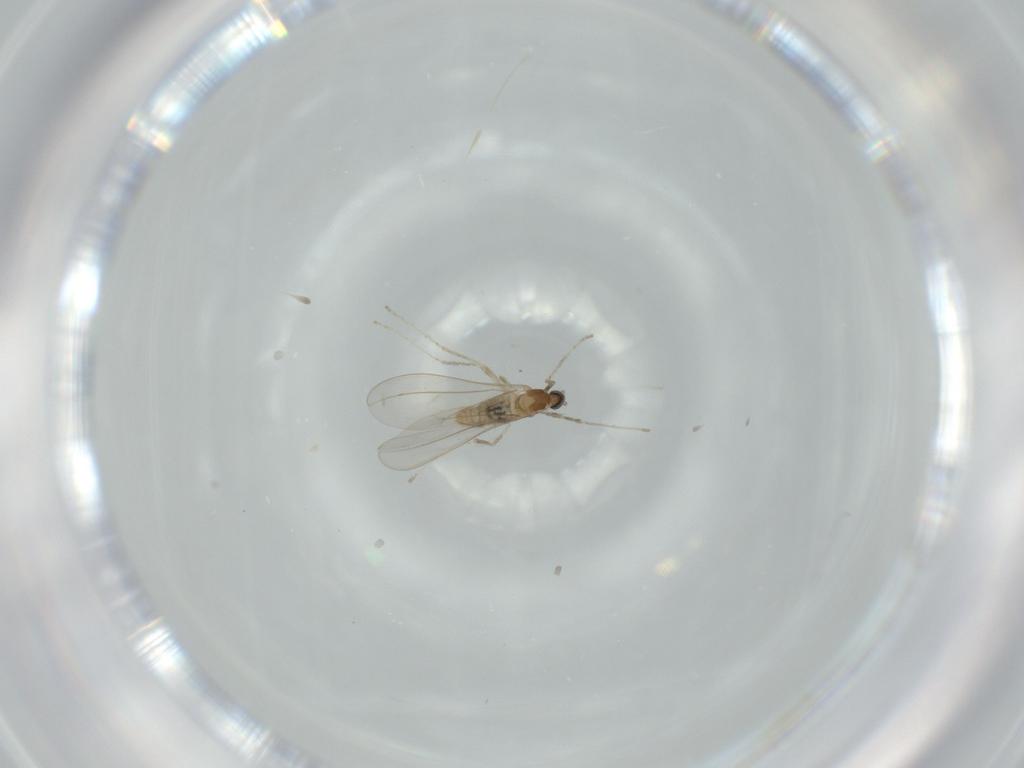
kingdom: Animalia
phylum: Arthropoda
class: Insecta
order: Diptera
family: Cecidomyiidae
